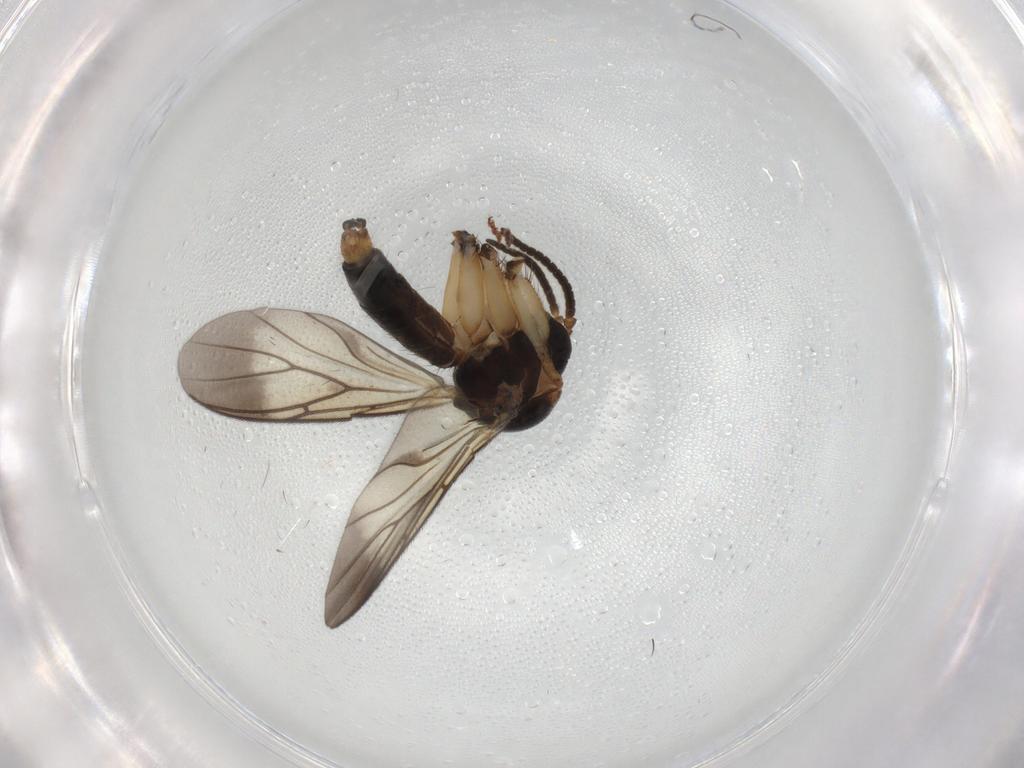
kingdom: Animalia
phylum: Arthropoda
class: Insecta
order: Diptera
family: Mycetophilidae
